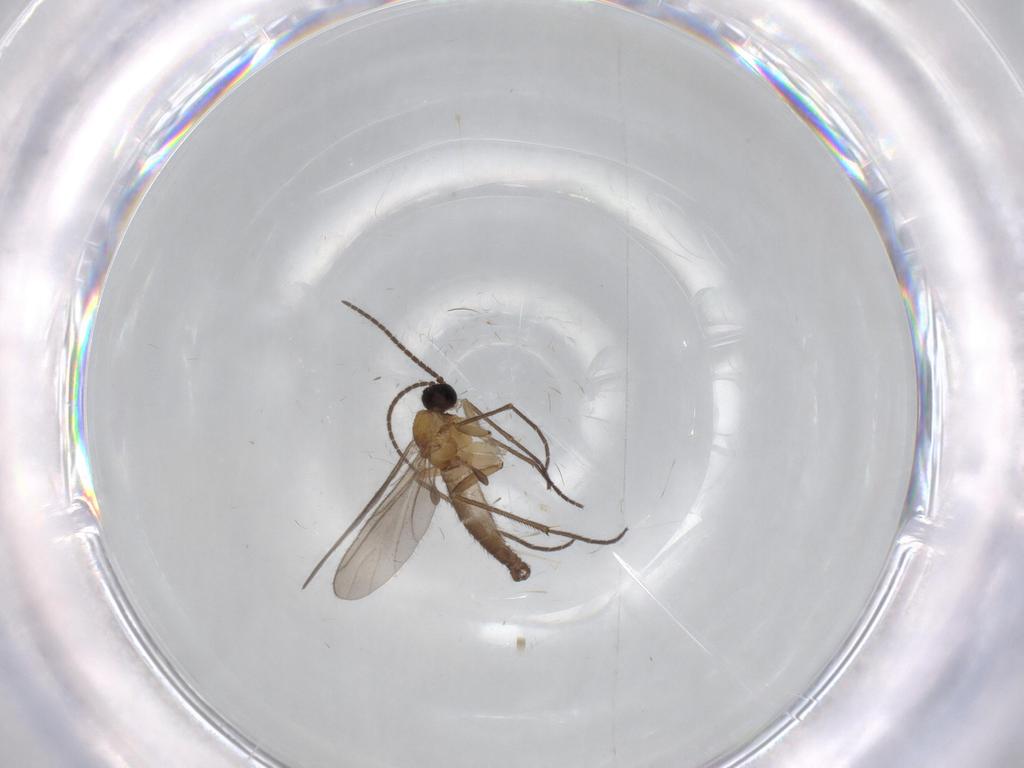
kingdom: Animalia
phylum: Arthropoda
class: Insecta
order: Diptera
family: Sciaridae
